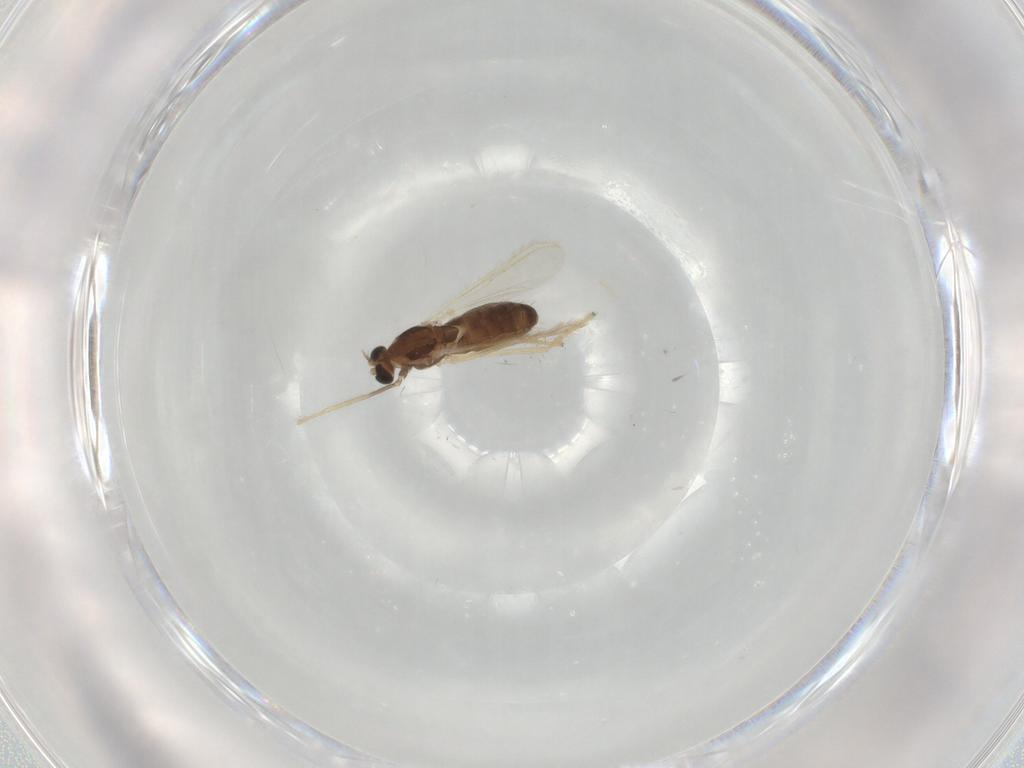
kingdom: Animalia
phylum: Arthropoda
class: Insecta
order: Diptera
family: Chironomidae
